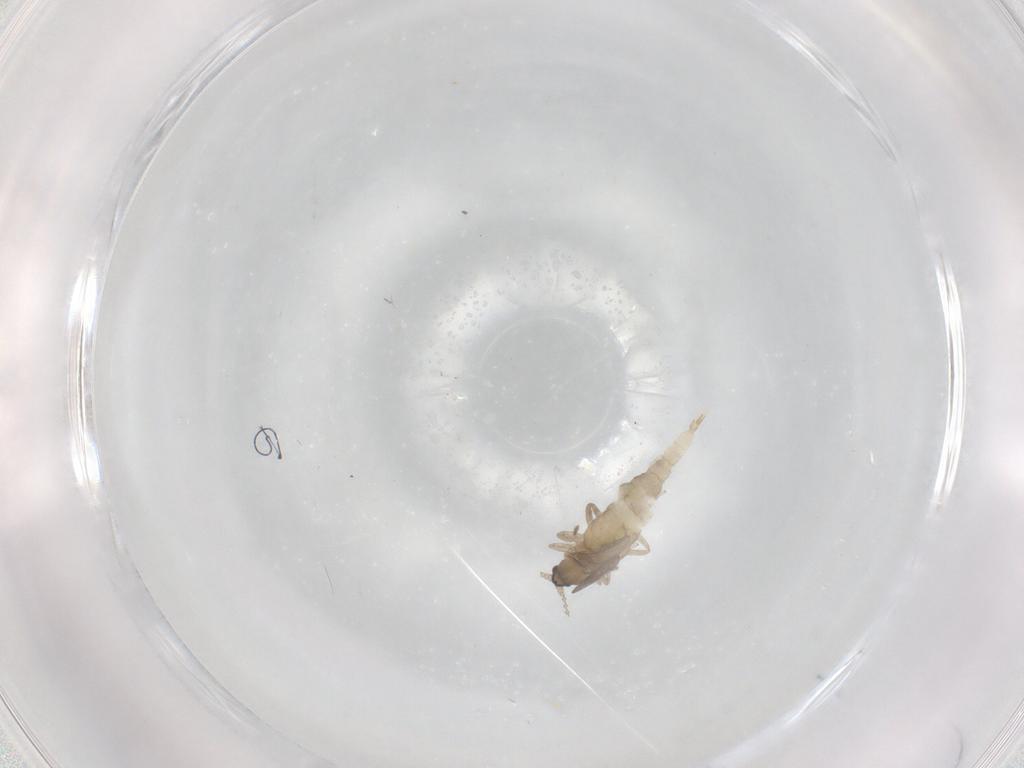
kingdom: Animalia
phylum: Arthropoda
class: Insecta
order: Diptera
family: Cecidomyiidae
